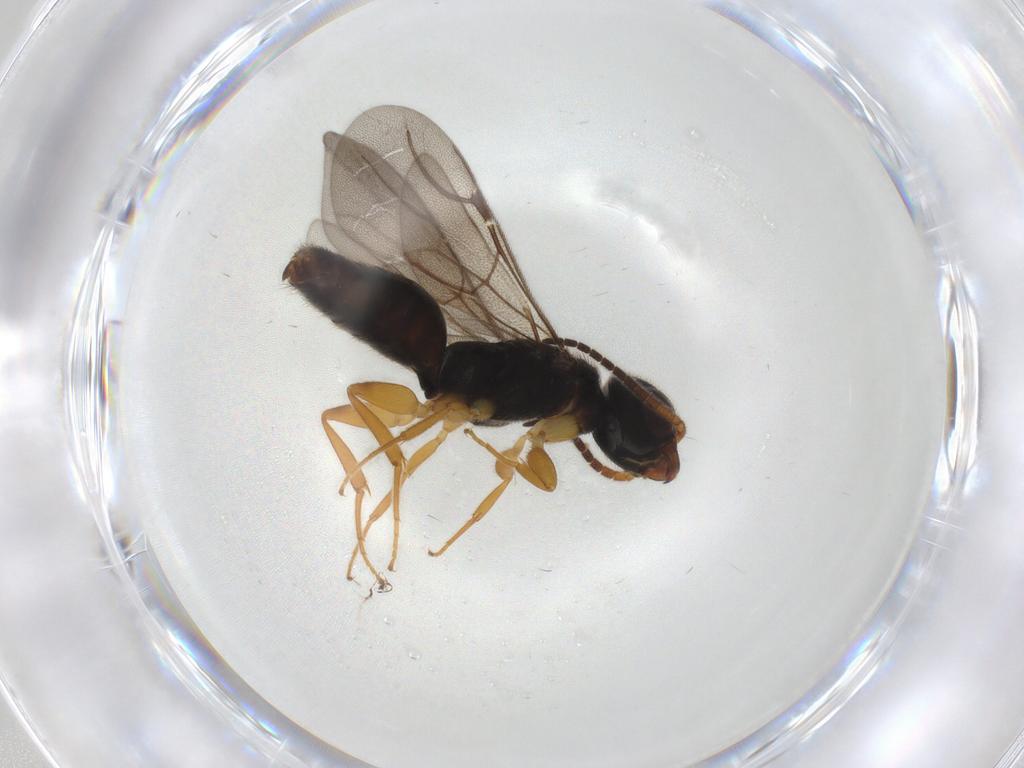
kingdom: Animalia
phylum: Arthropoda
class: Insecta
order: Hymenoptera
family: Bethylidae
